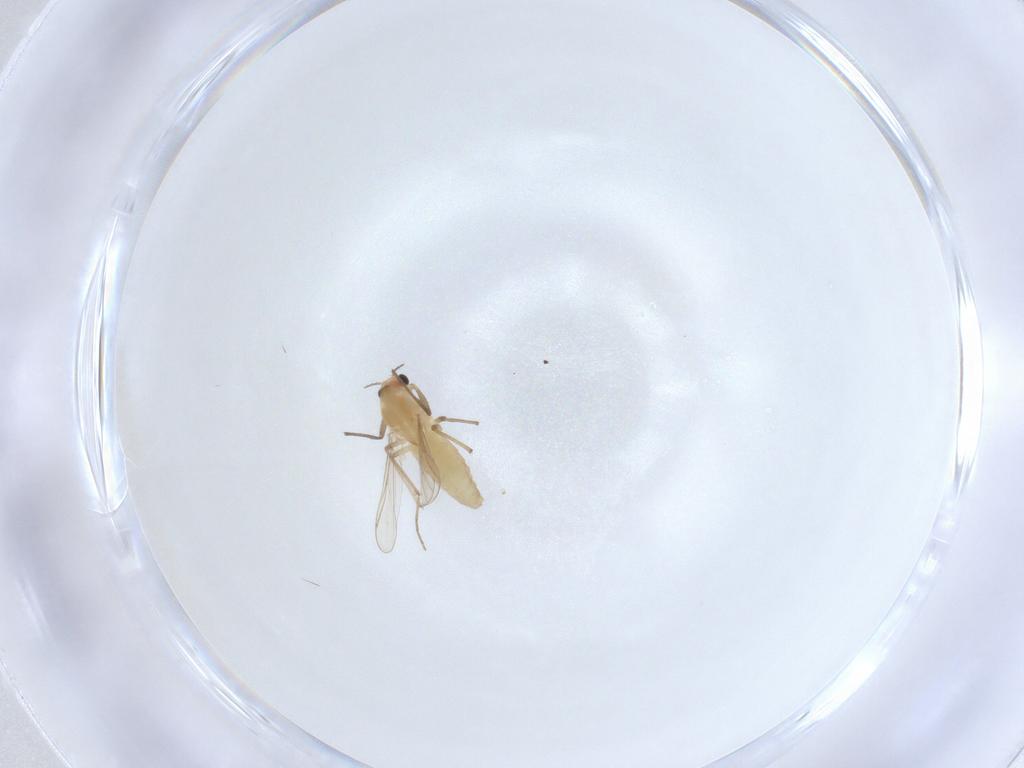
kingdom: Animalia
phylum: Arthropoda
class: Insecta
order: Diptera
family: Chironomidae
